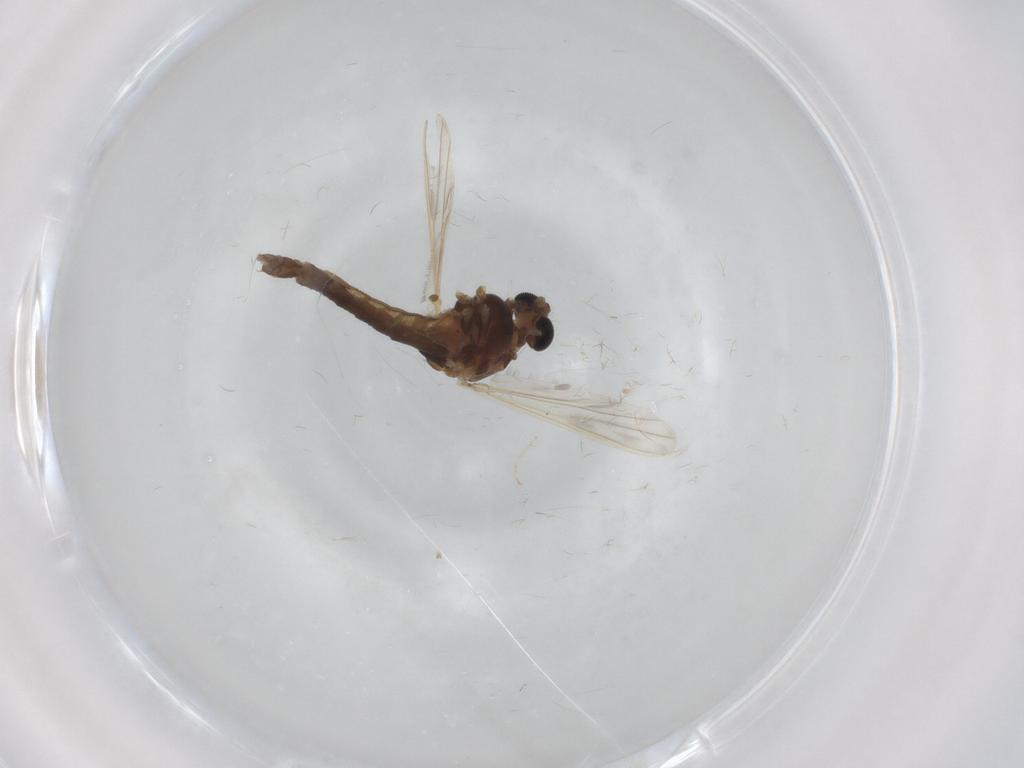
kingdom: Animalia
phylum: Arthropoda
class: Insecta
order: Diptera
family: Chironomidae
